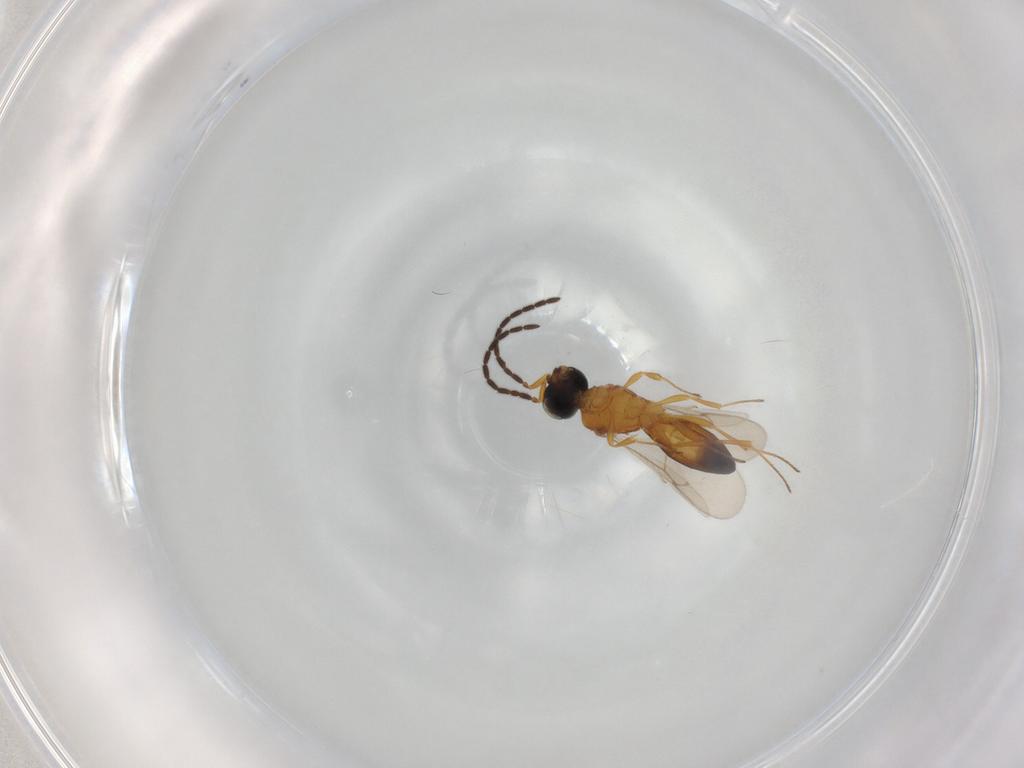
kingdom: Animalia
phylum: Arthropoda
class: Insecta
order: Hymenoptera
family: Scelionidae
